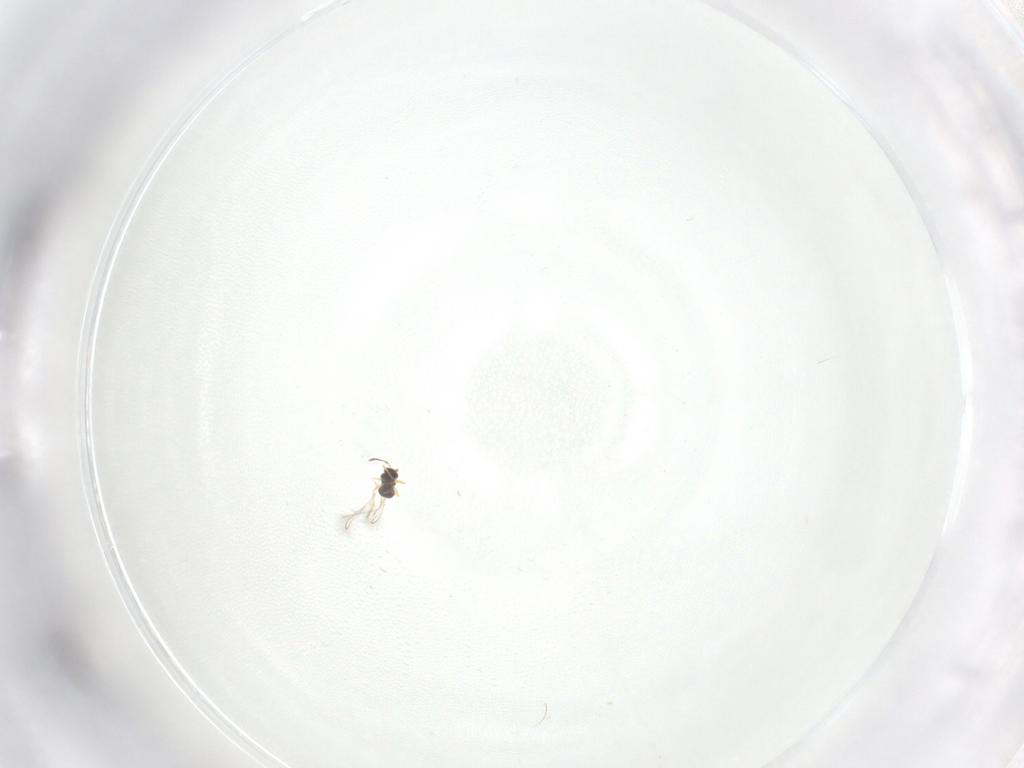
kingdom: Animalia
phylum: Arthropoda
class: Insecta
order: Hymenoptera
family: Mymaridae
